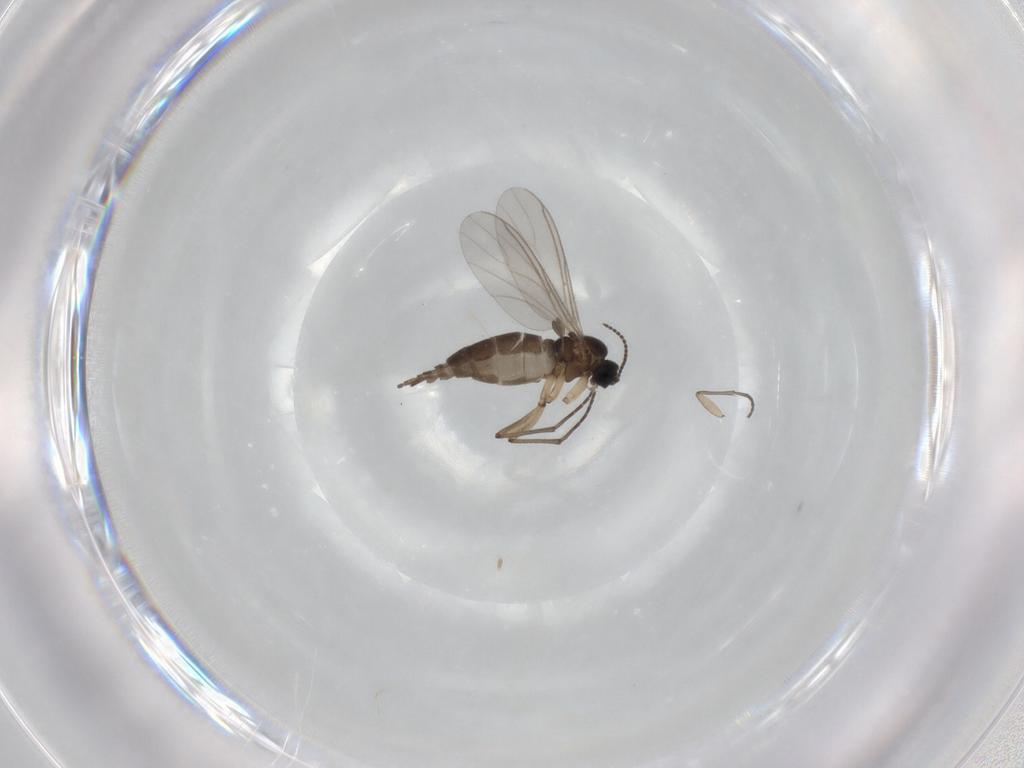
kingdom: Animalia
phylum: Arthropoda
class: Insecta
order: Diptera
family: Sciaridae
